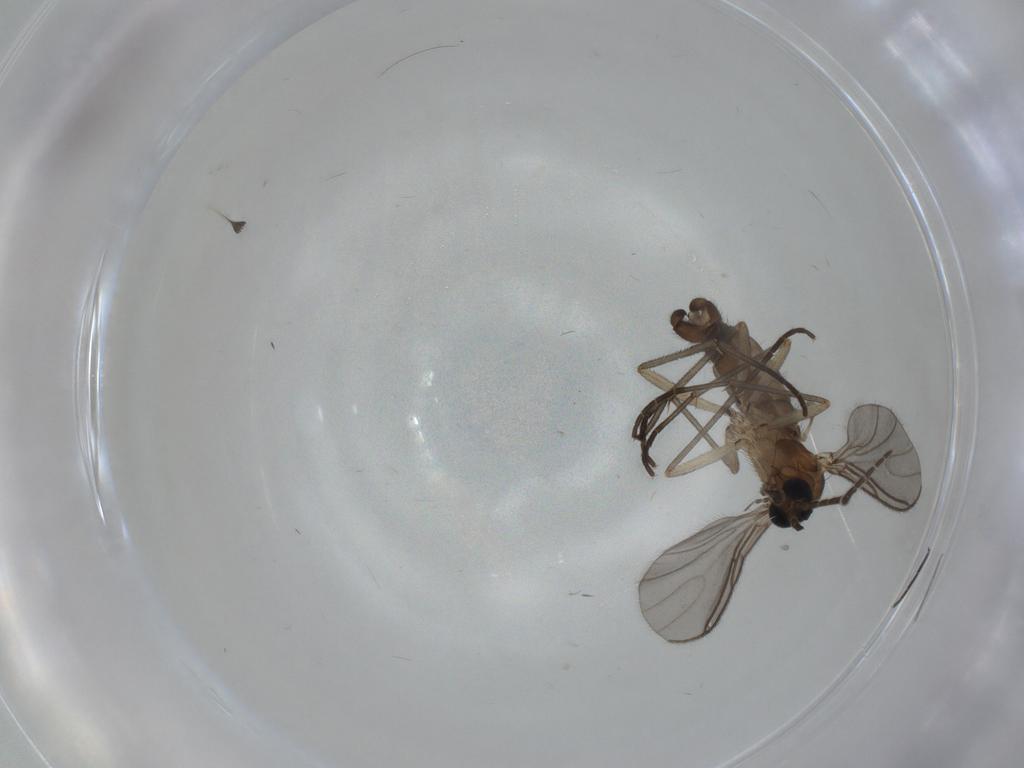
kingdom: Animalia
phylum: Arthropoda
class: Insecta
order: Diptera
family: Sciaridae
